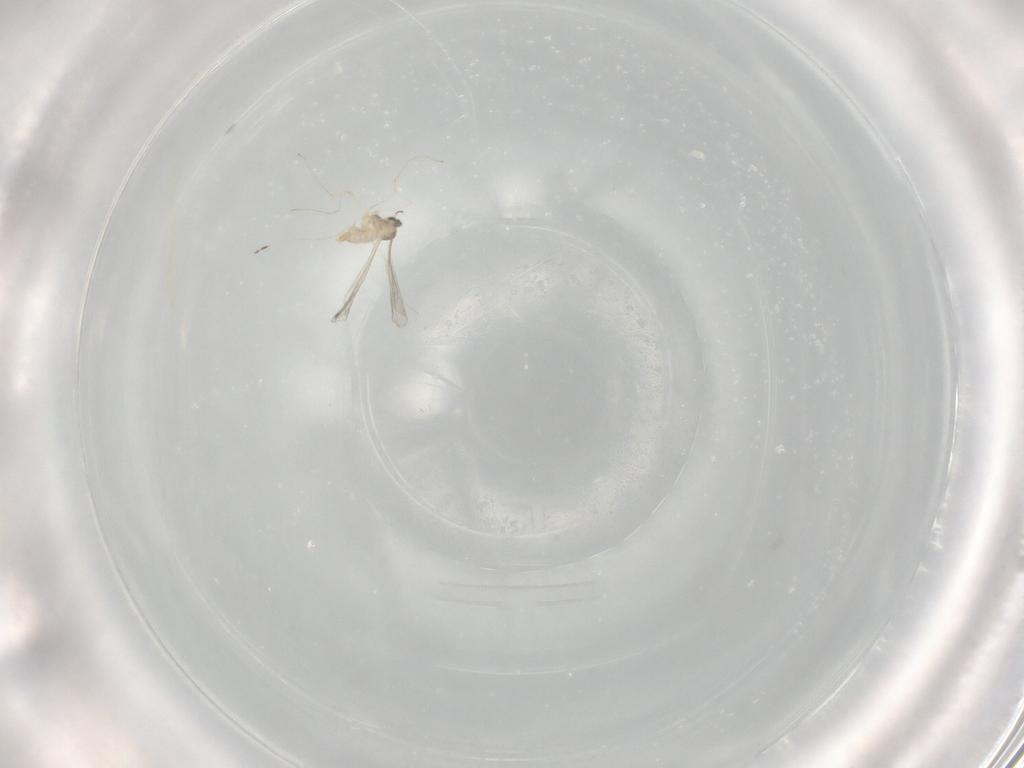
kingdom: Animalia
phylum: Arthropoda
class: Insecta
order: Diptera
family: Cecidomyiidae
